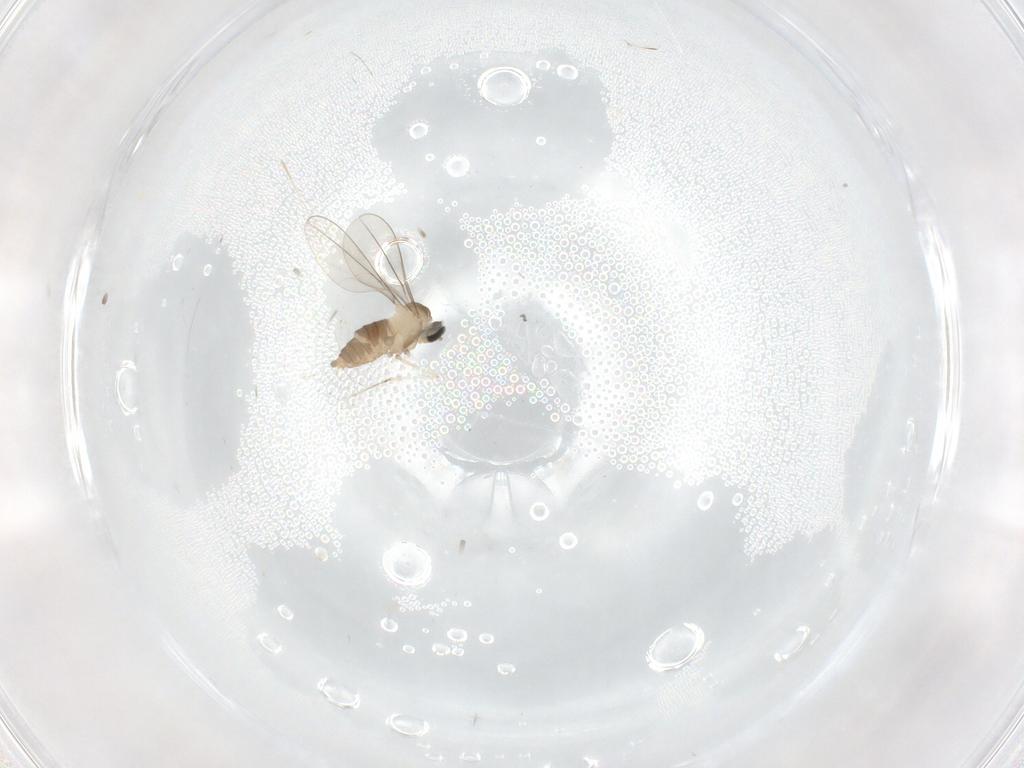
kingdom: Animalia
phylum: Arthropoda
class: Insecta
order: Diptera
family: Cecidomyiidae
